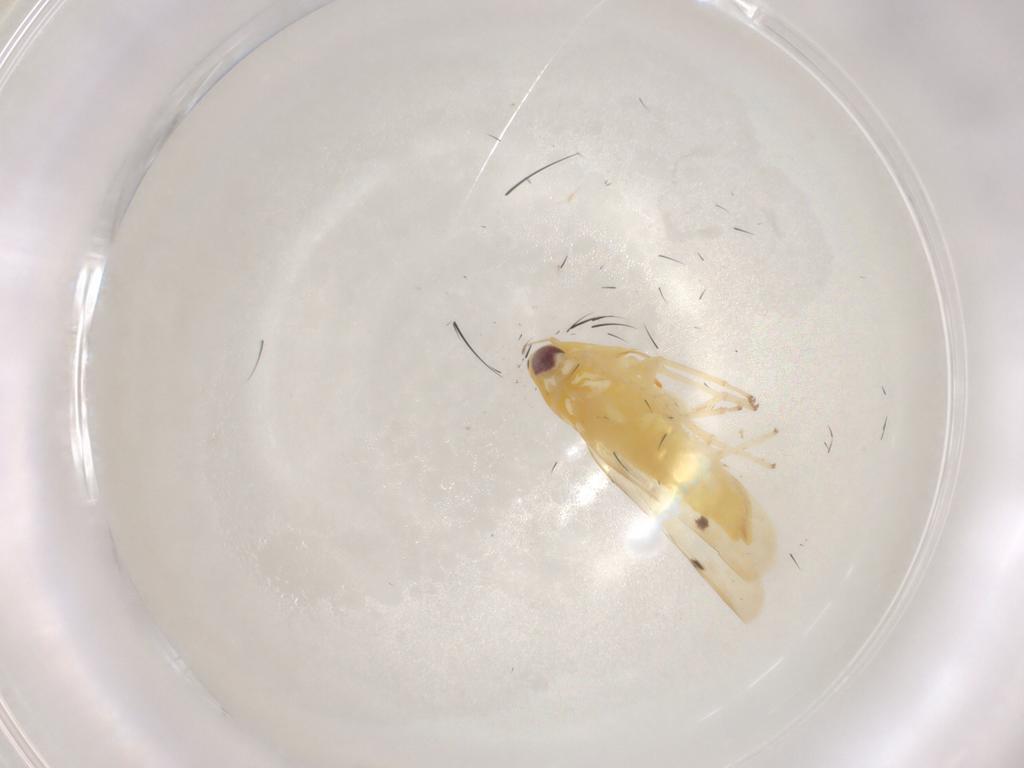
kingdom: Animalia
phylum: Arthropoda
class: Insecta
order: Hemiptera
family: Cicadellidae
